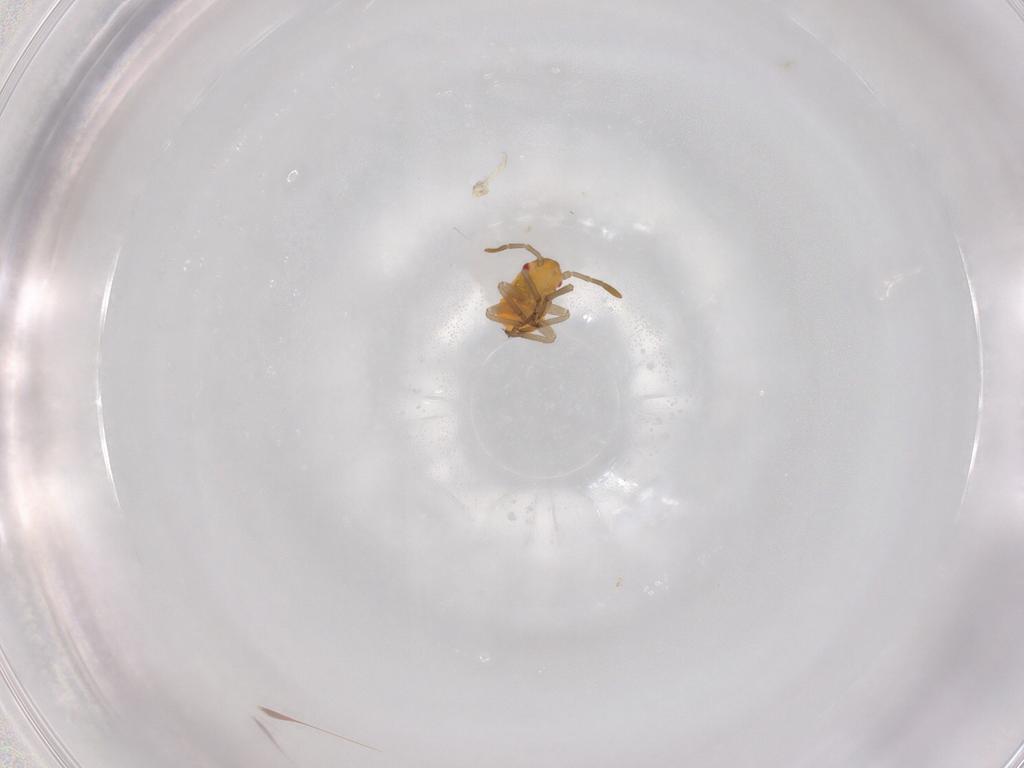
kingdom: Animalia
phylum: Arthropoda
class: Insecta
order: Hemiptera
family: Miridae
